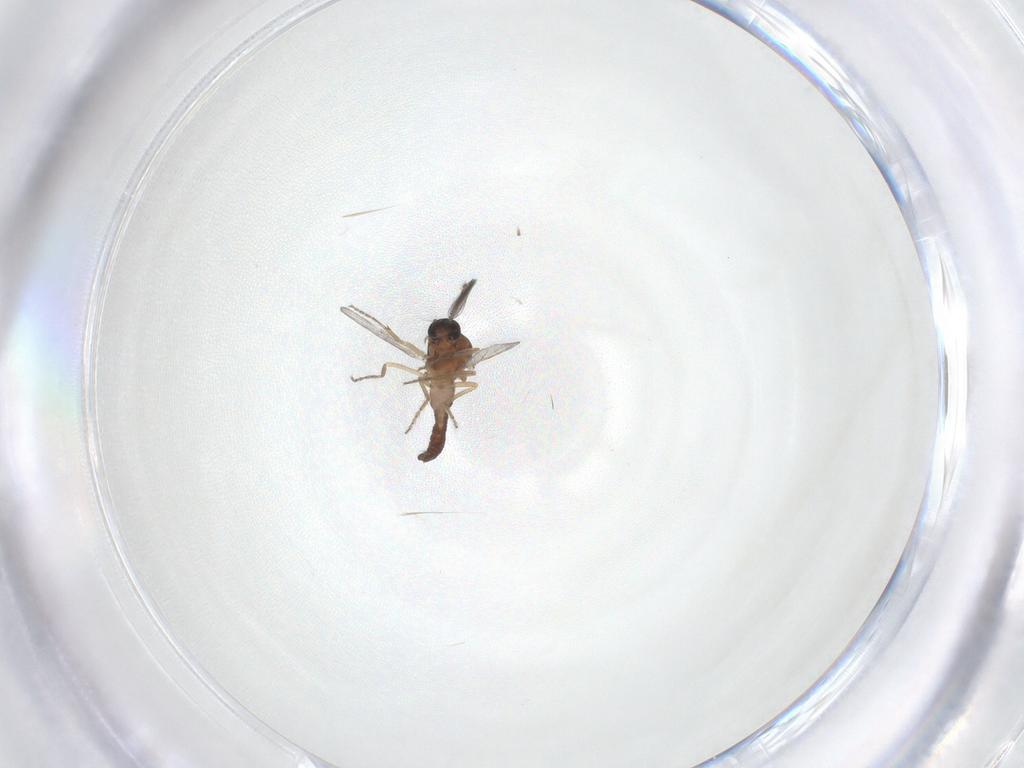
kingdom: Animalia
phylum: Arthropoda
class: Insecta
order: Diptera
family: Ceratopogonidae
